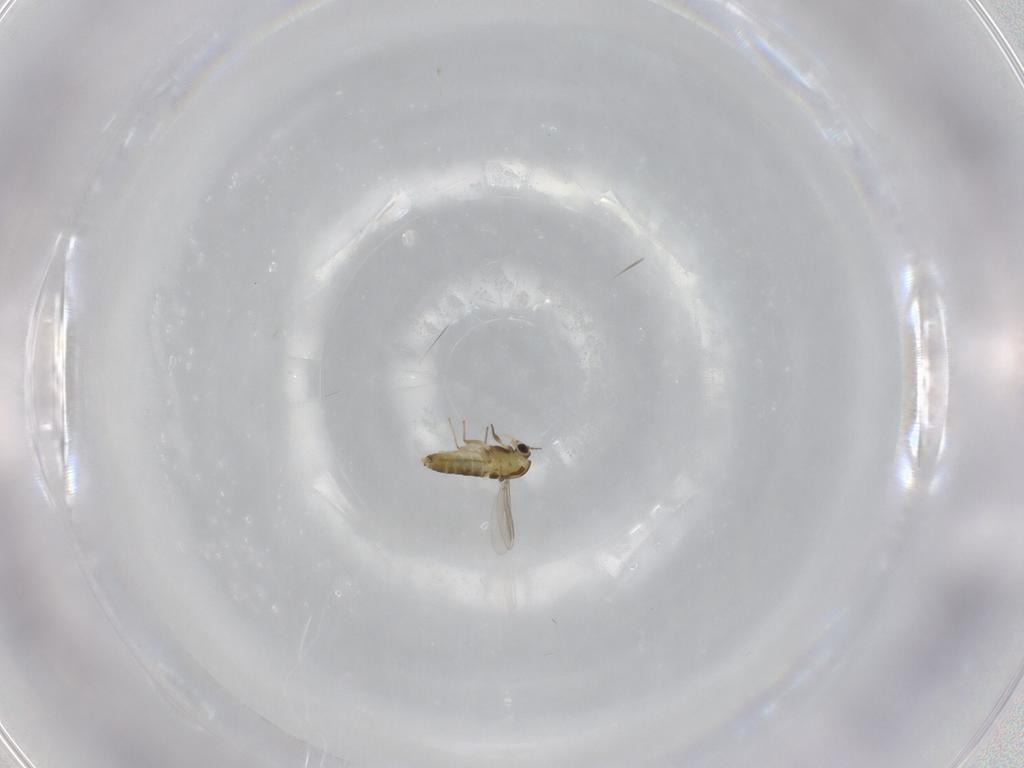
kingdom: Animalia
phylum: Arthropoda
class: Insecta
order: Diptera
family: Chironomidae
